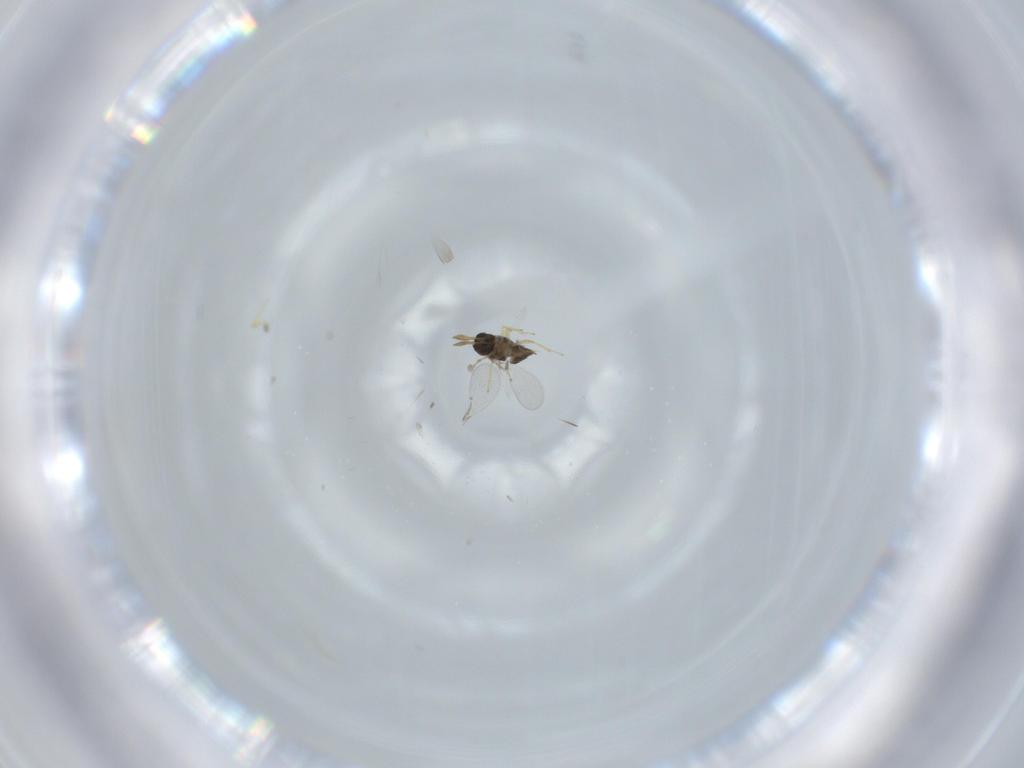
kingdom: Animalia
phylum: Arthropoda
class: Insecta
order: Hymenoptera
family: Encyrtidae
